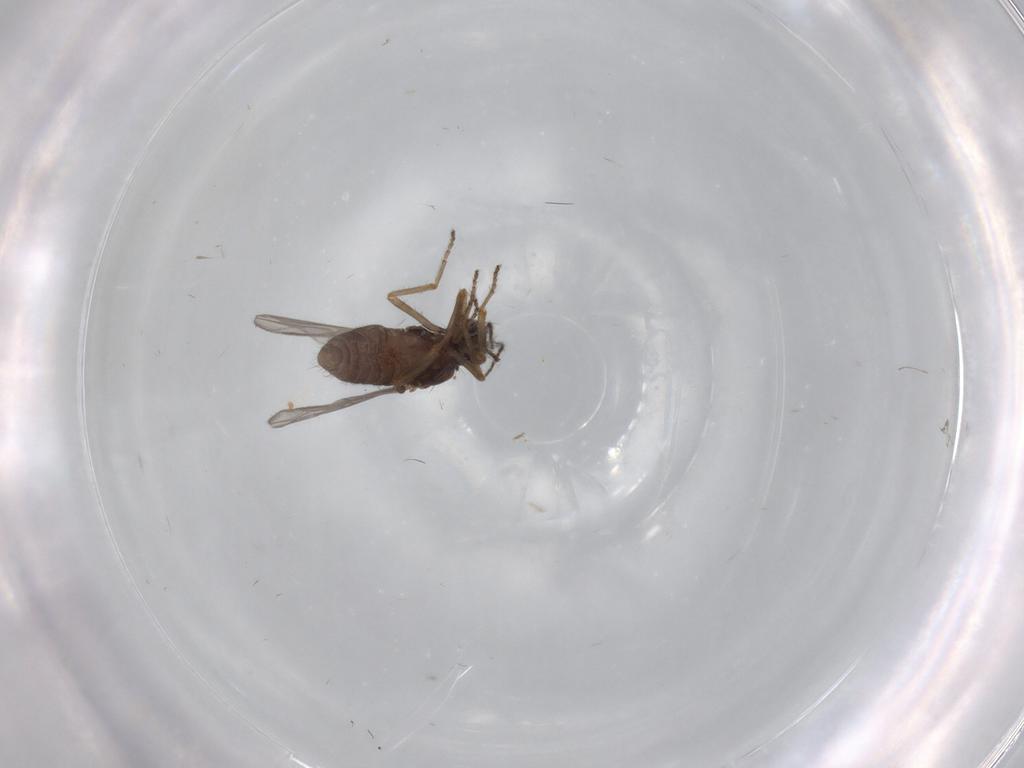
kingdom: Animalia
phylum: Arthropoda
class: Insecta
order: Diptera
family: Ceratopogonidae
